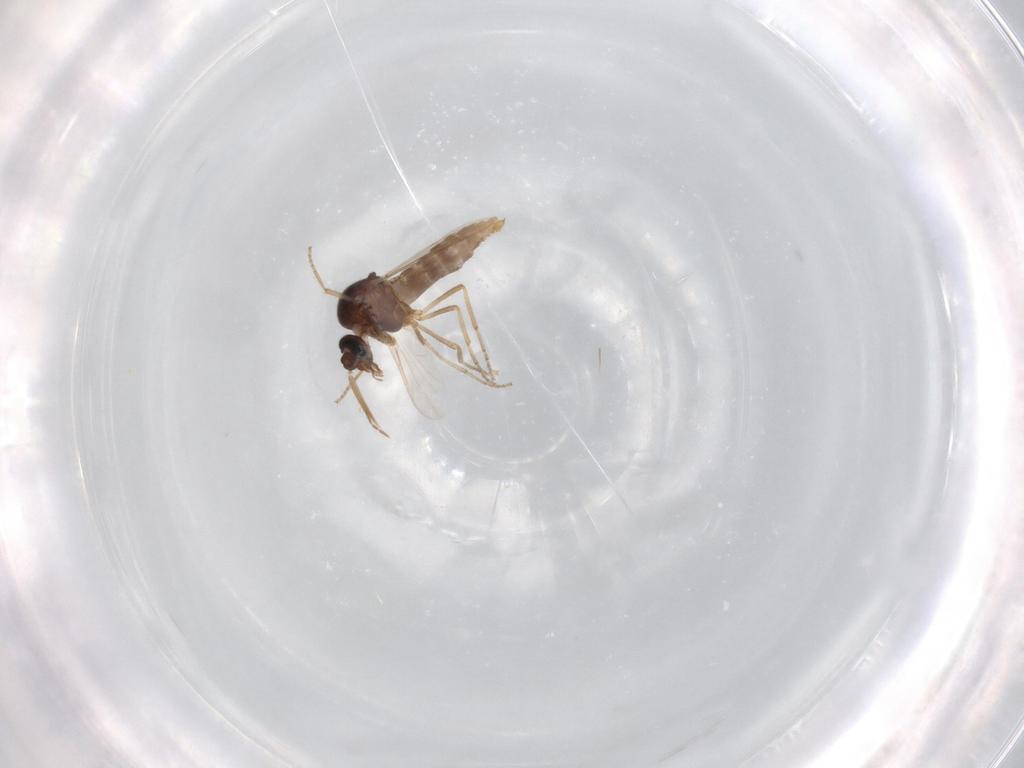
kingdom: Animalia
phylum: Arthropoda
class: Insecta
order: Diptera
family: Ceratopogonidae
